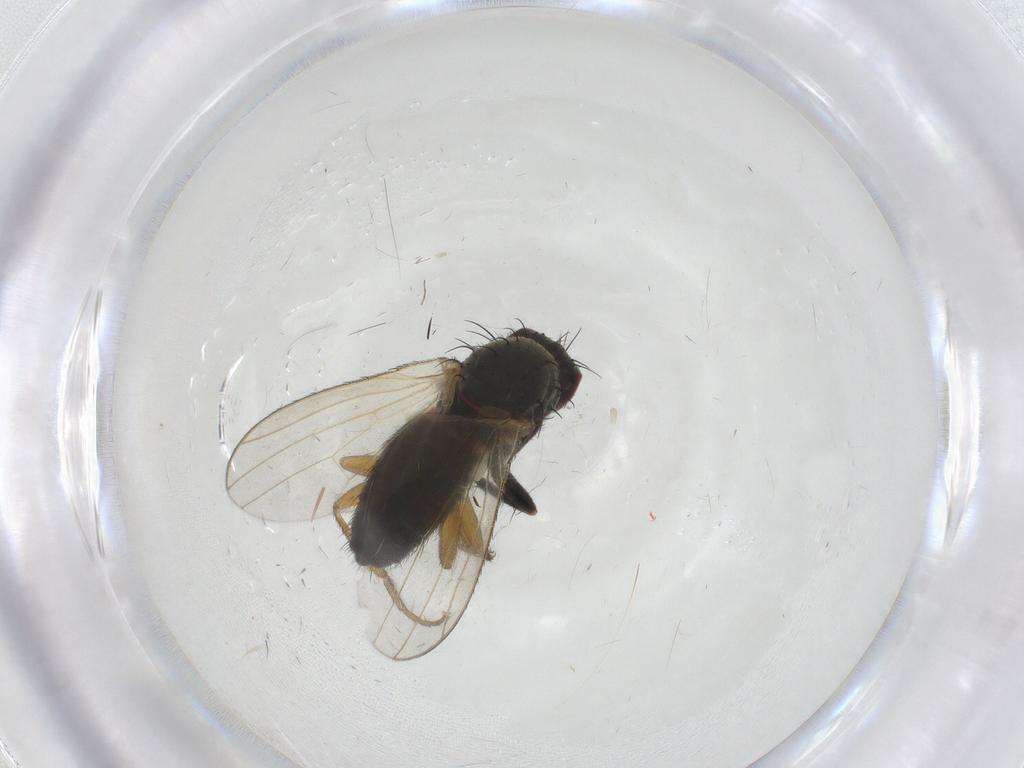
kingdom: Animalia
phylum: Arthropoda
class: Insecta
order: Diptera
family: Heleomyzidae
